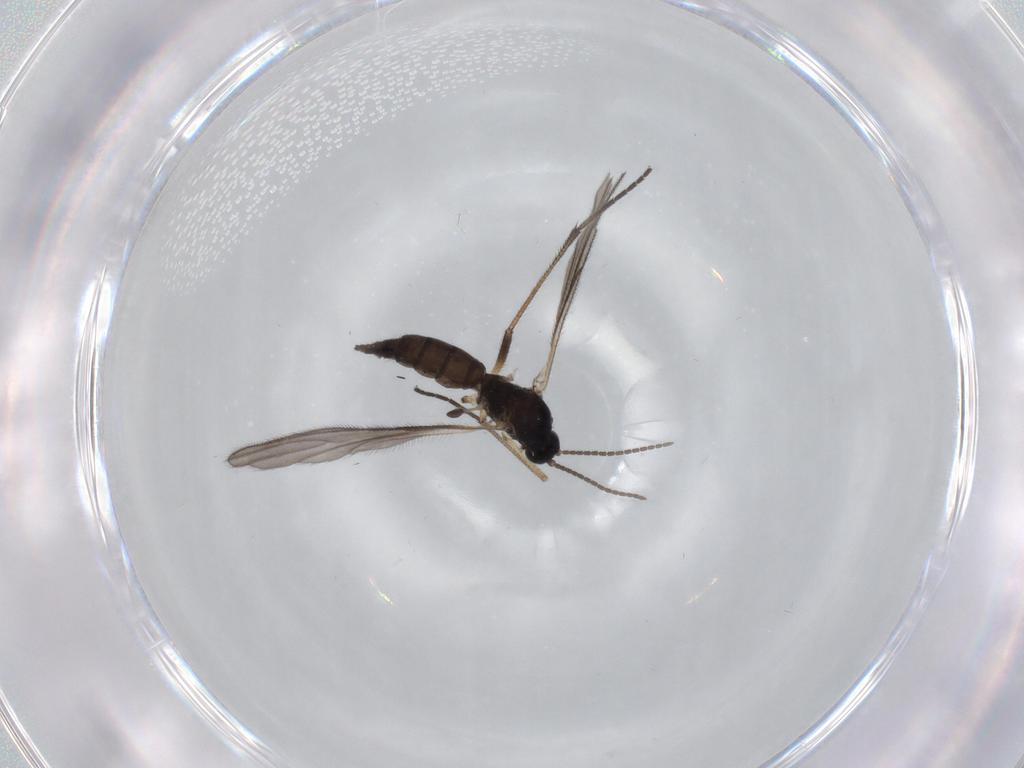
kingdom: Animalia
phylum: Arthropoda
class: Insecta
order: Diptera
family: Sciaridae
